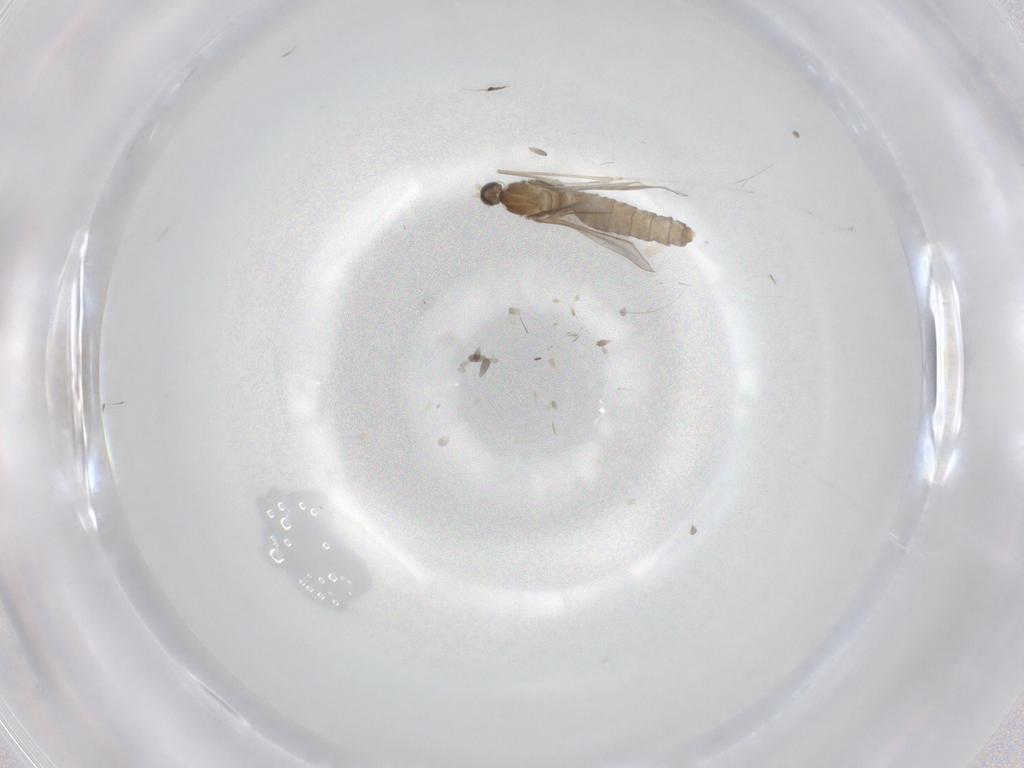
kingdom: Animalia
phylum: Arthropoda
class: Insecta
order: Diptera
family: Cecidomyiidae
